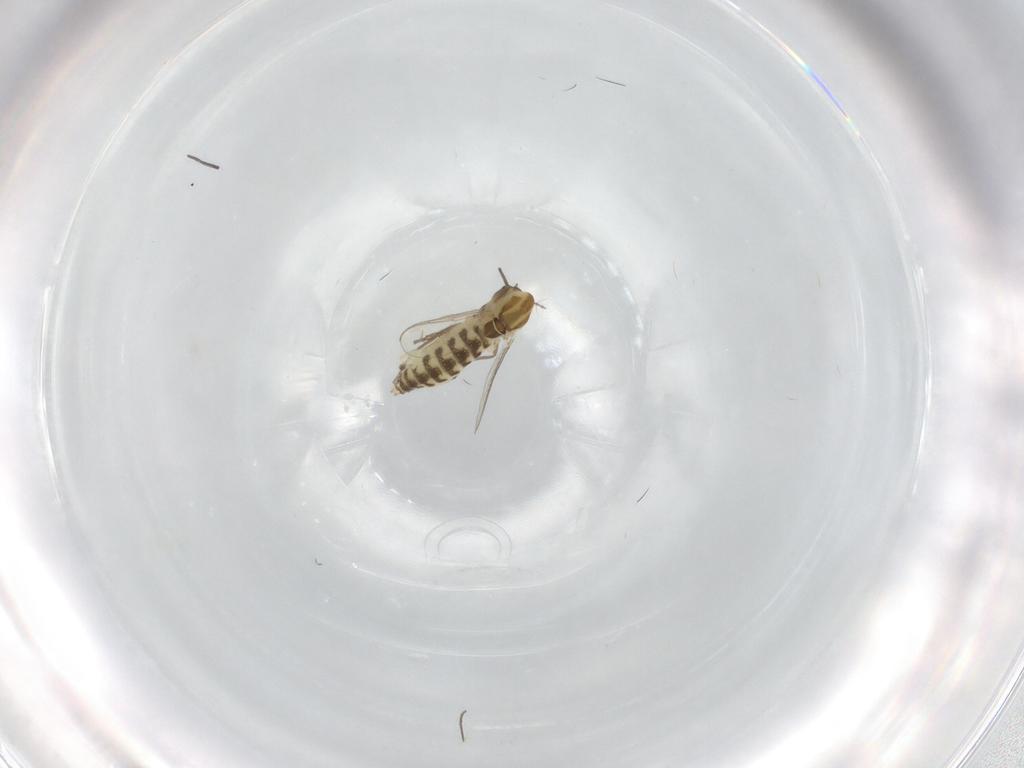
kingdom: Animalia
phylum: Arthropoda
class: Insecta
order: Diptera
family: Chironomidae
